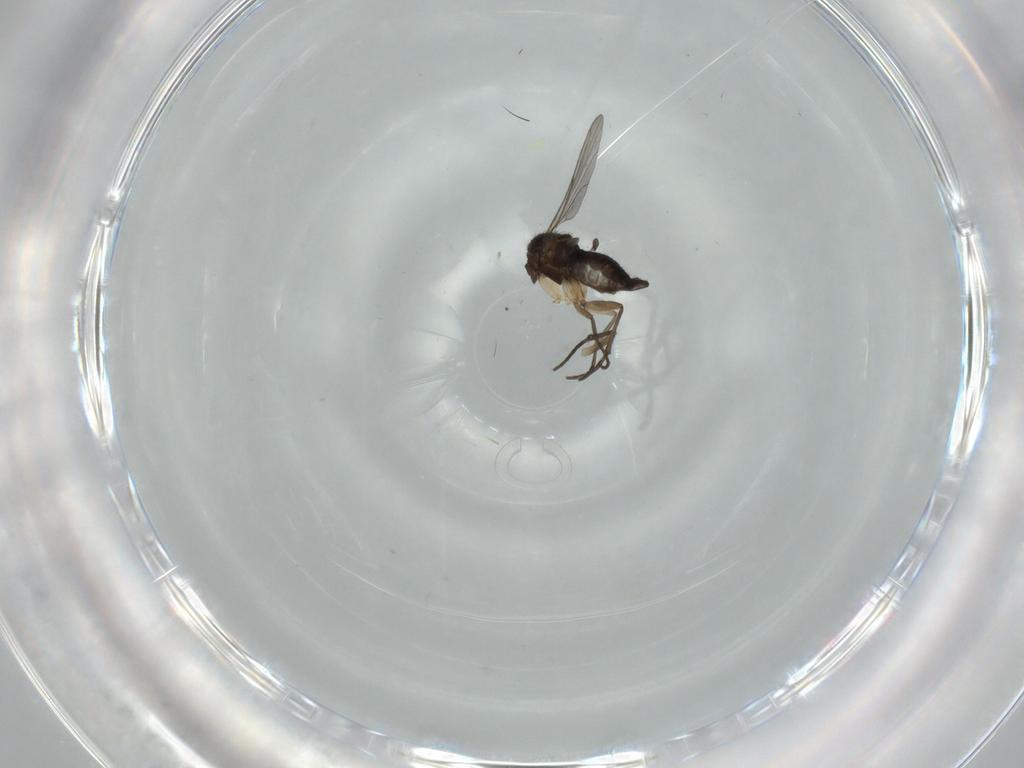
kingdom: Animalia
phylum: Arthropoda
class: Insecta
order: Diptera
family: Sciaridae
